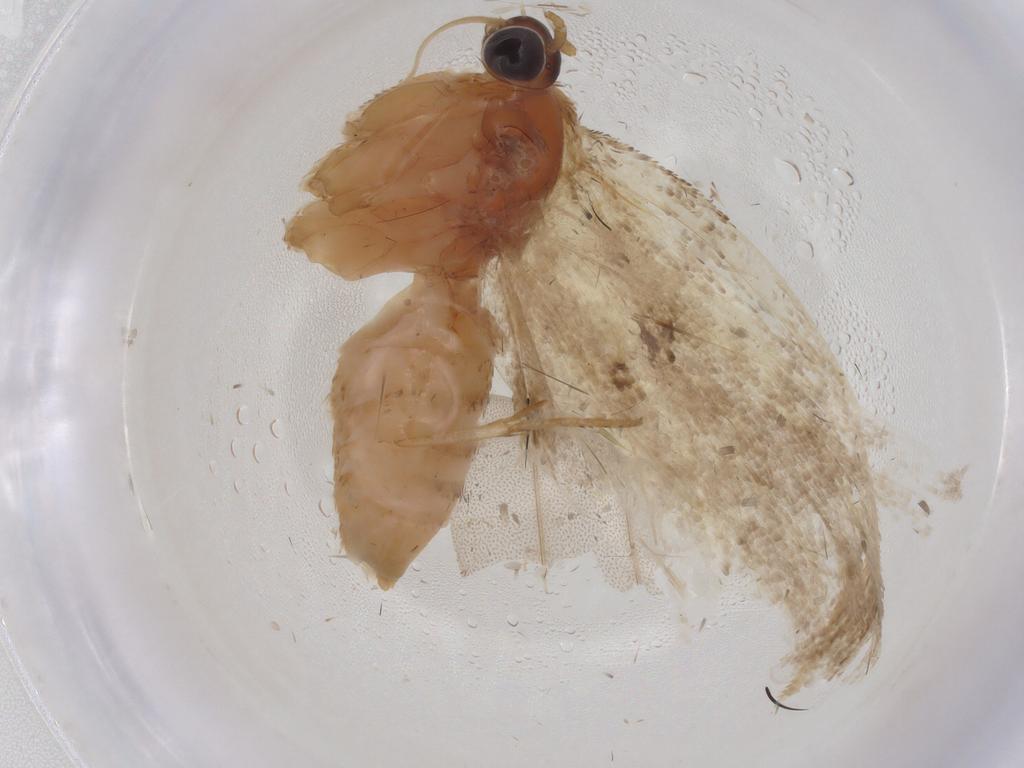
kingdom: Animalia
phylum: Arthropoda
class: Insecta
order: Lepidoptera
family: Tortricidae
